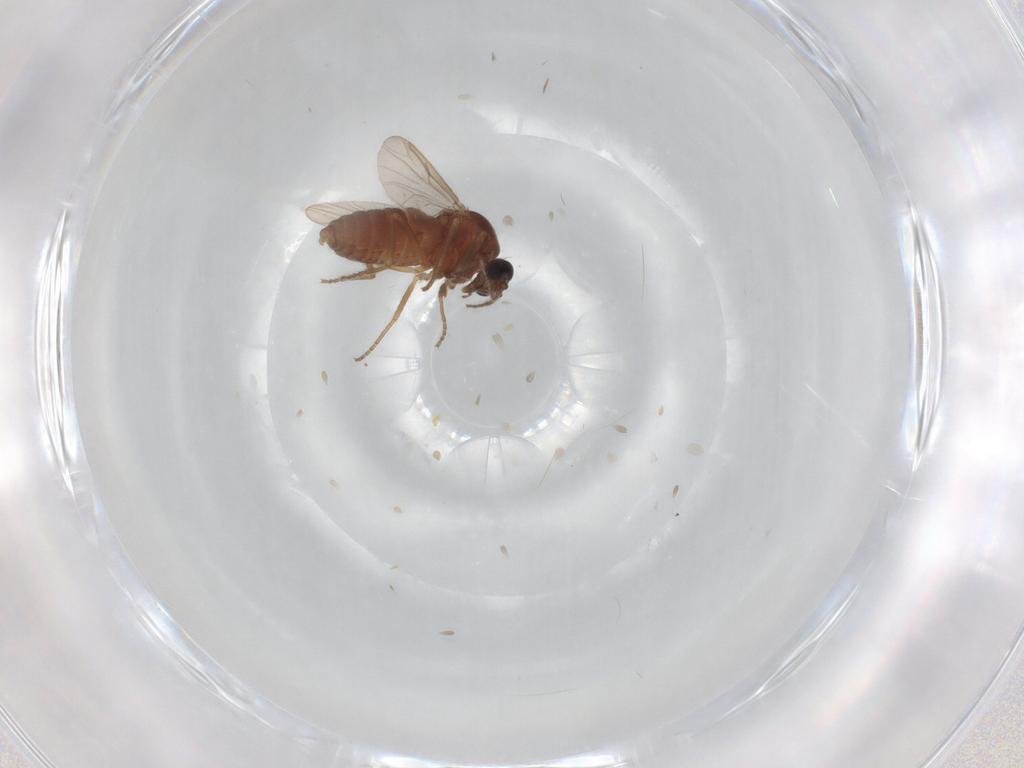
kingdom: Animalia
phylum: Arthropoda
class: Insecta
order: Diptera
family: Ceratopogonidae
